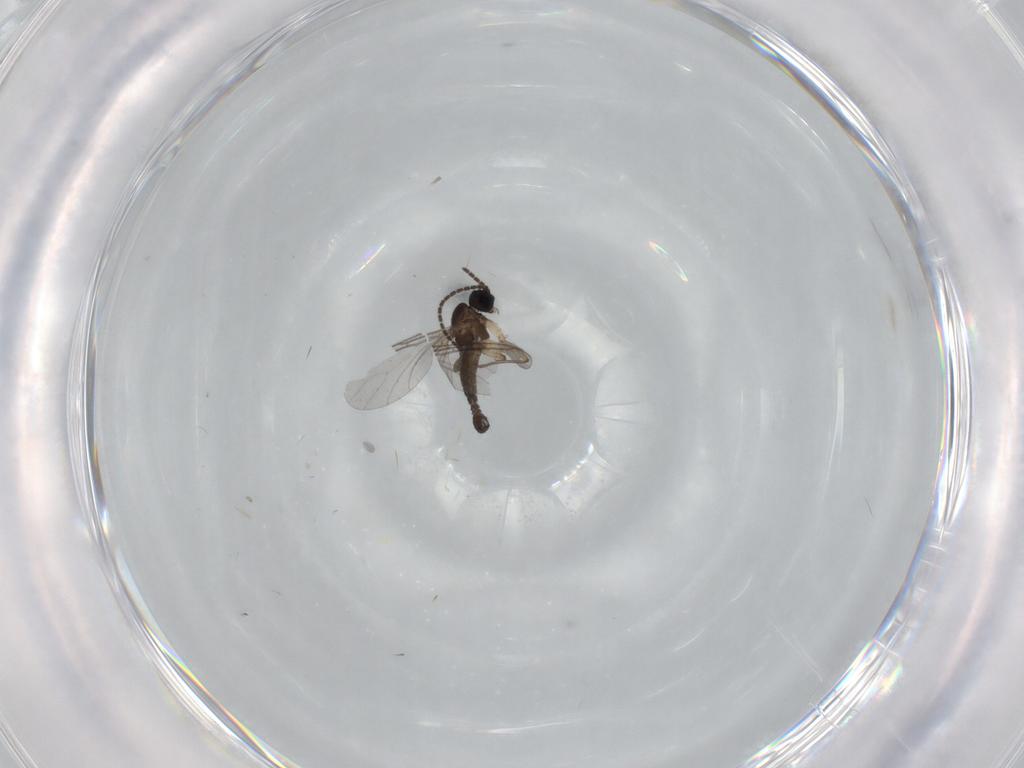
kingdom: Animalia
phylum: Arthropoda
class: Insecta
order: Diptera
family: Sciaridae
